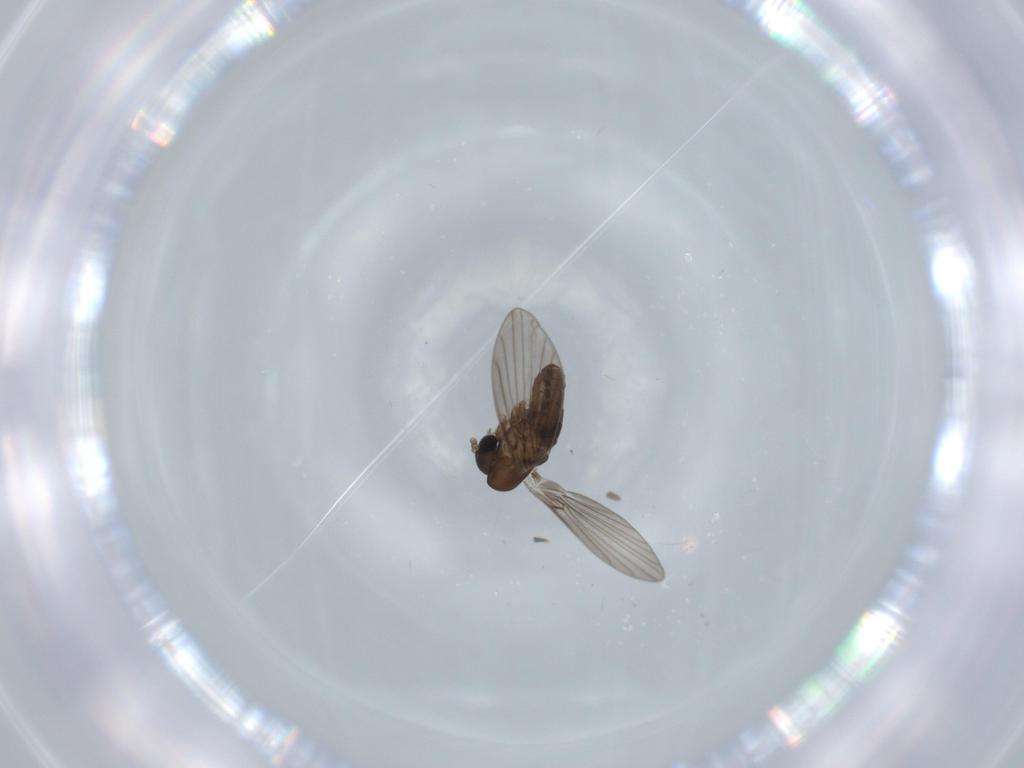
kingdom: Animalia
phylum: Arthropoda
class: Insecta
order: Diptera
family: Psychodidae
